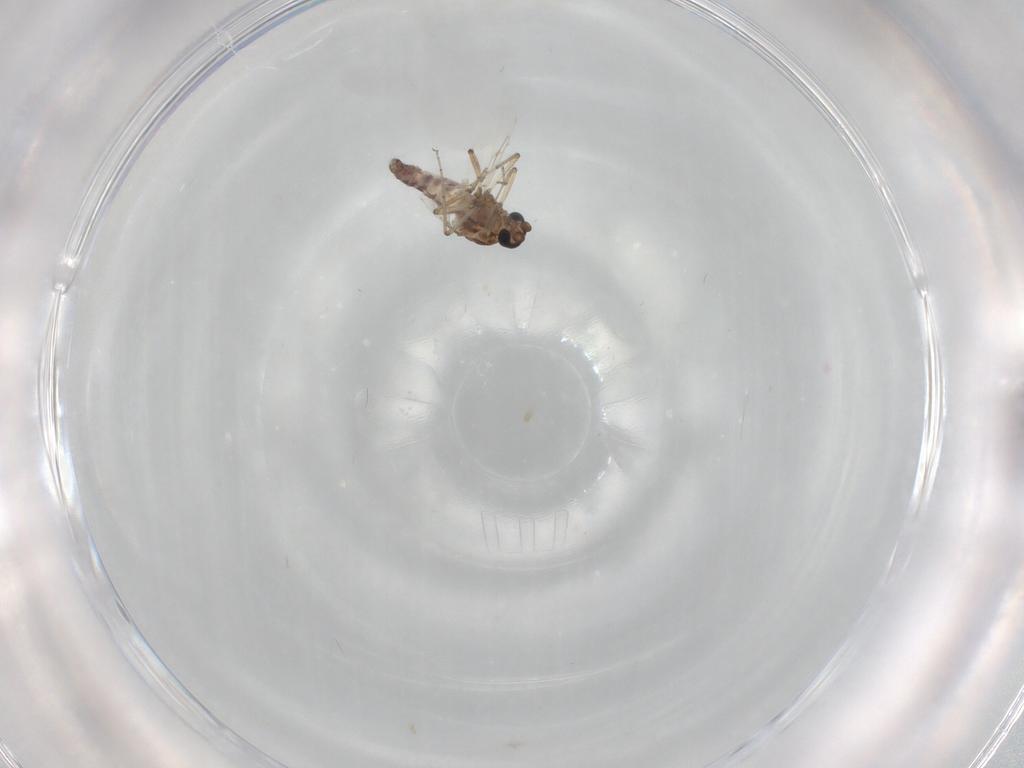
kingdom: Animalia
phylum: Arthropoda
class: Insecta
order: Diptera
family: Ceratopogonidae
